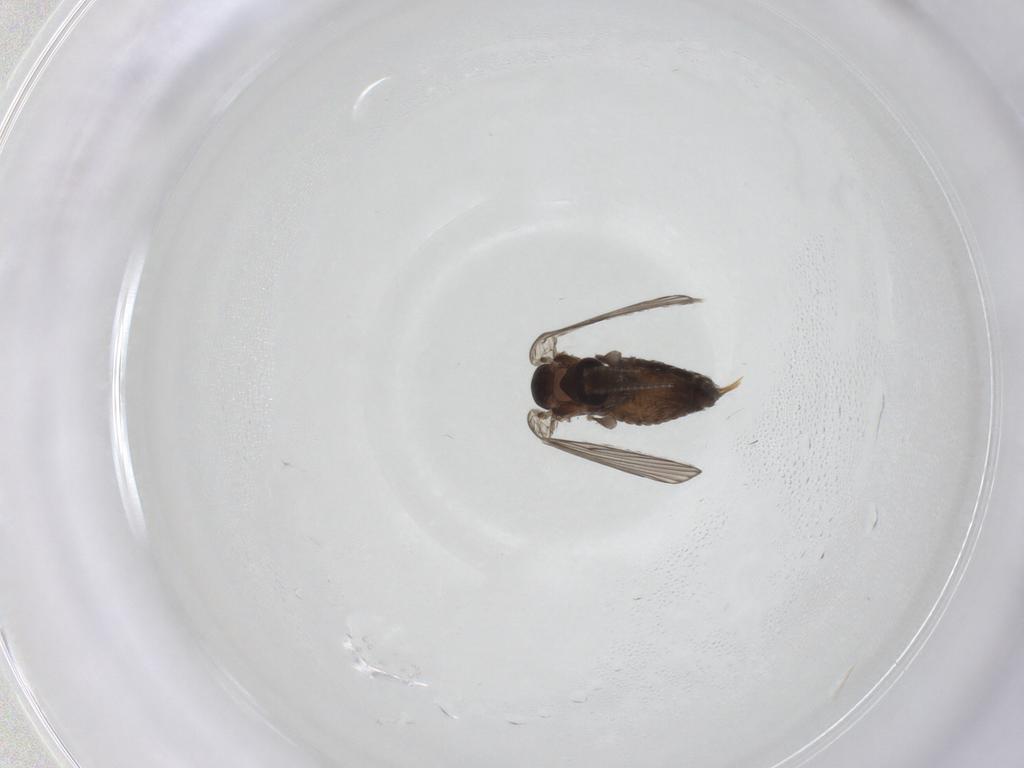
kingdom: Animalia
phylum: Arthropoda
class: Insecta
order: Diptera
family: Psychodidae
